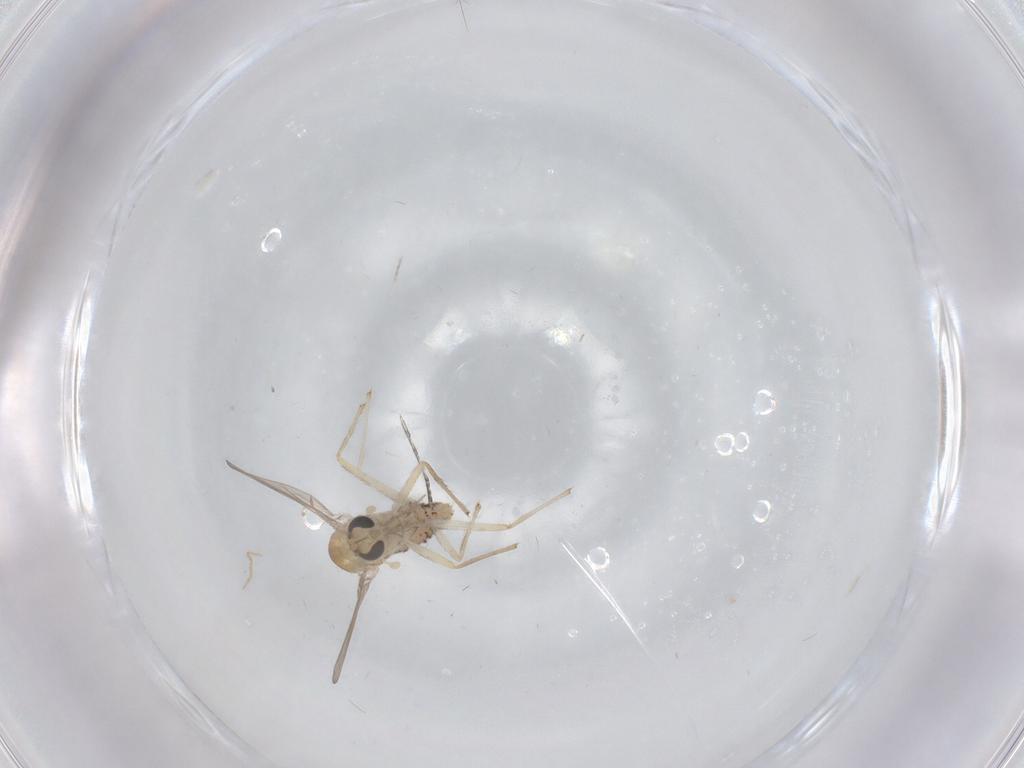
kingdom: Animalia
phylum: Arthropoda
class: Insecta
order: Diptera
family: Chironomidae
